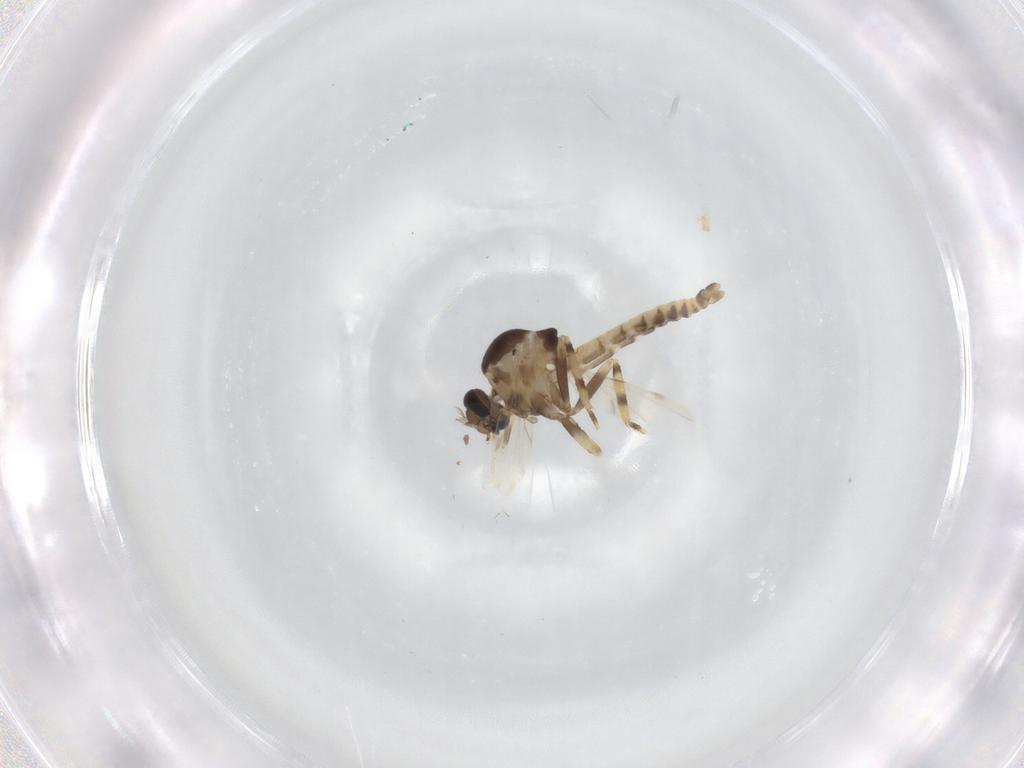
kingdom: Animalia
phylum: Arthropoda
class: Insecta
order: Diptera
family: Ceratopogonidae
